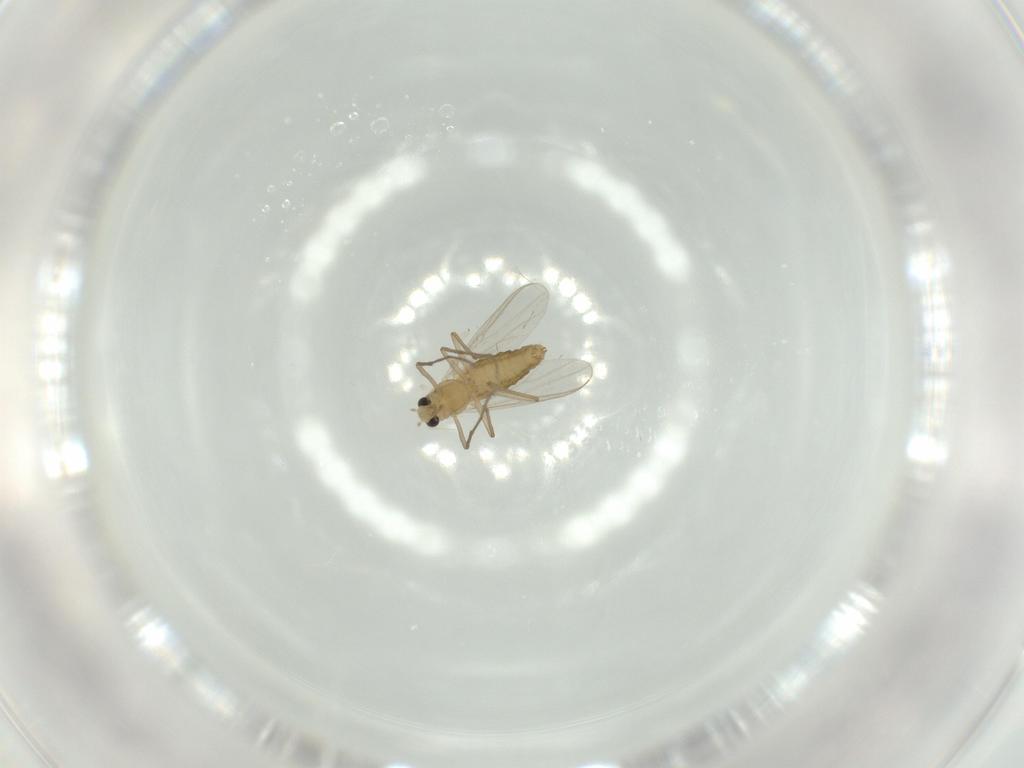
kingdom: Animalia
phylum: Arthropoda
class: Insecta
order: Diptera
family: Chironomidae
